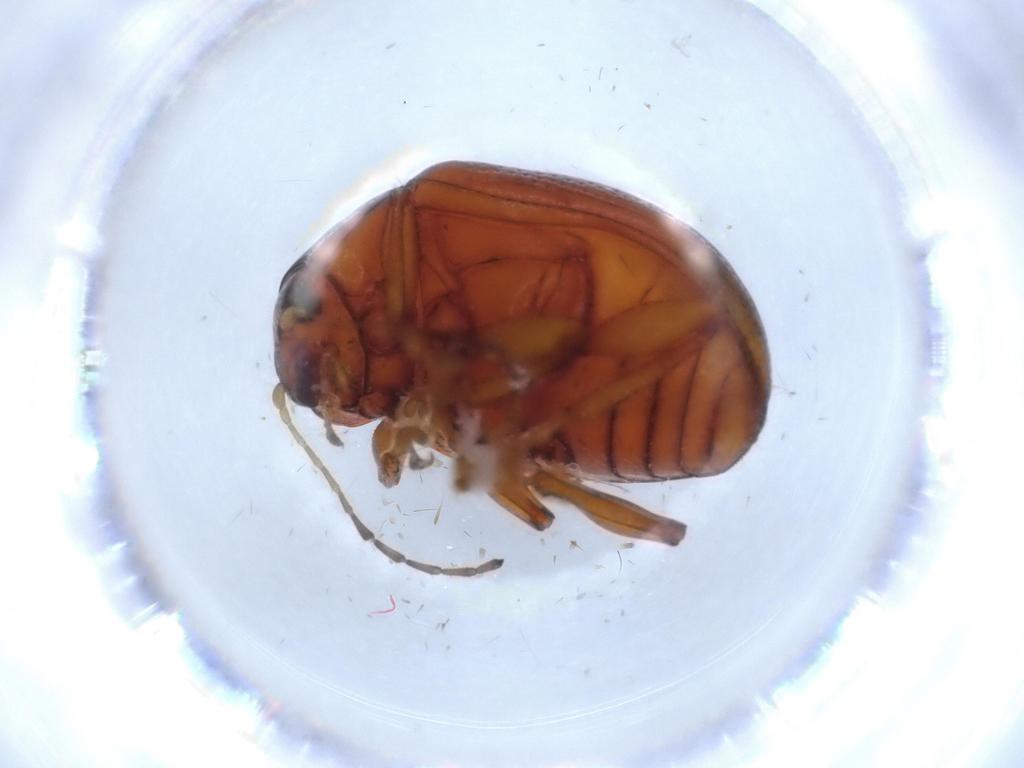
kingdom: Animalia
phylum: Arthropoda
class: Insecta
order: Coleoptera
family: Chrysomelidae
